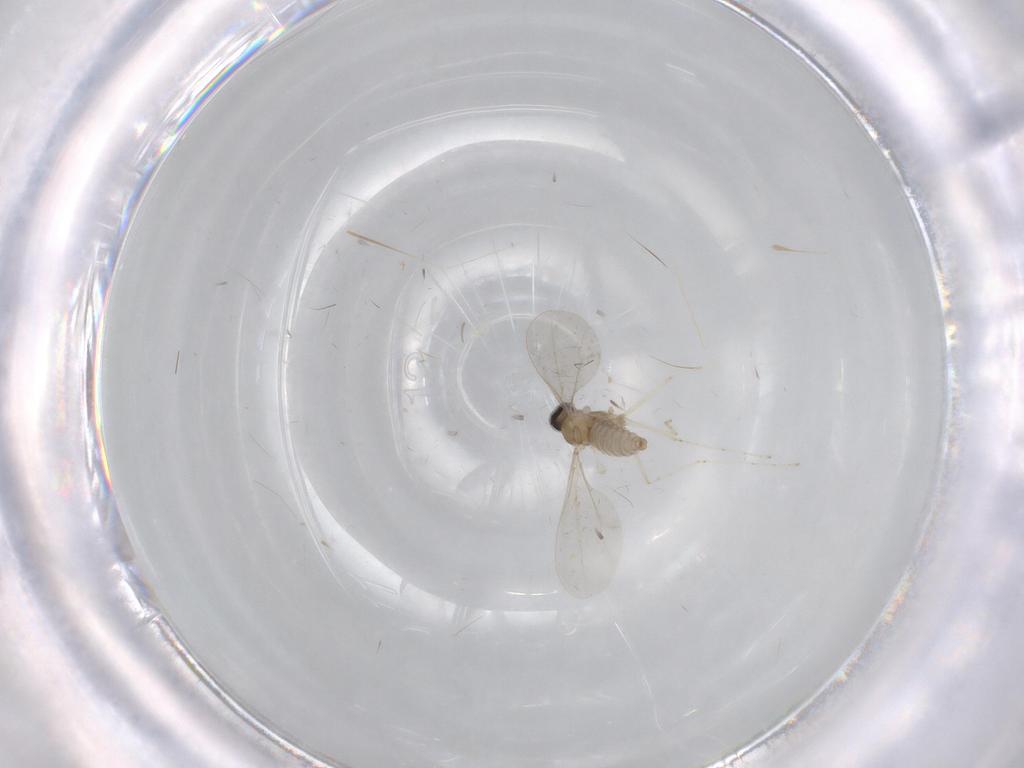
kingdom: Animalia
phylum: Arthropoda
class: Insecta
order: Diptera
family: Cecidomyiidae
